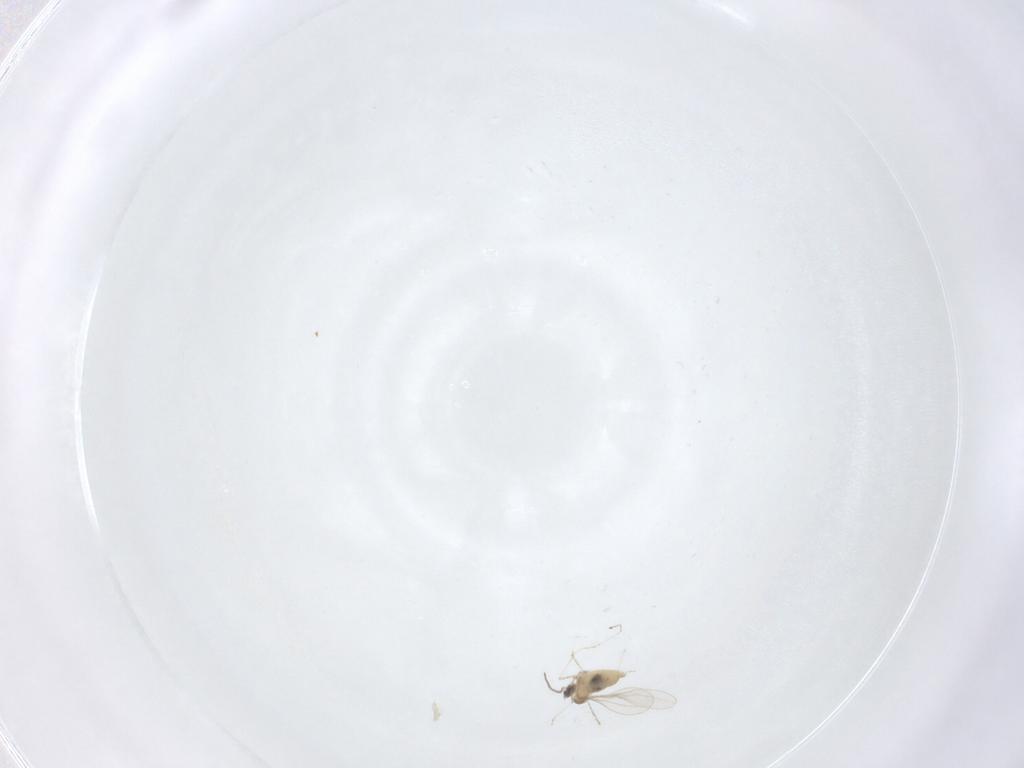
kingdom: Animalia
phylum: Arthropoda
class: Insecta
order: Diptera
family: Cecidomyiidae
